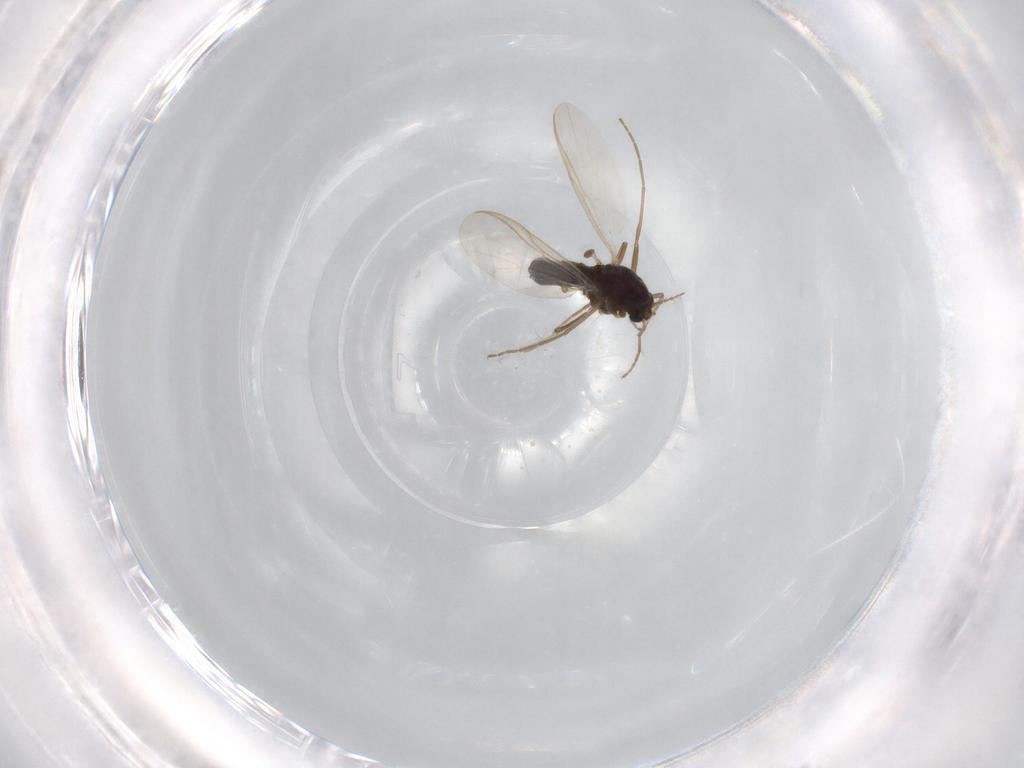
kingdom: Animalia
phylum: Arthropoda
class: Insecta
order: Diptera
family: Chironomidae
